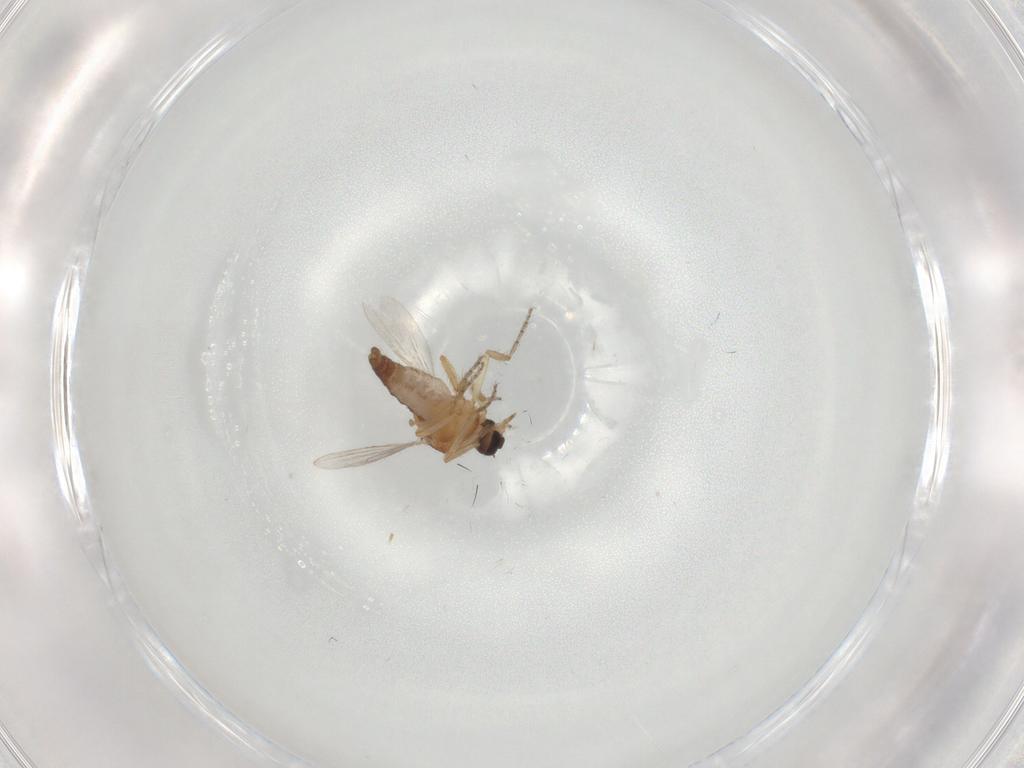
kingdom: Animalia
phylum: Arthropoda
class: Insecta
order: Diptera
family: Ceratopogonidae
